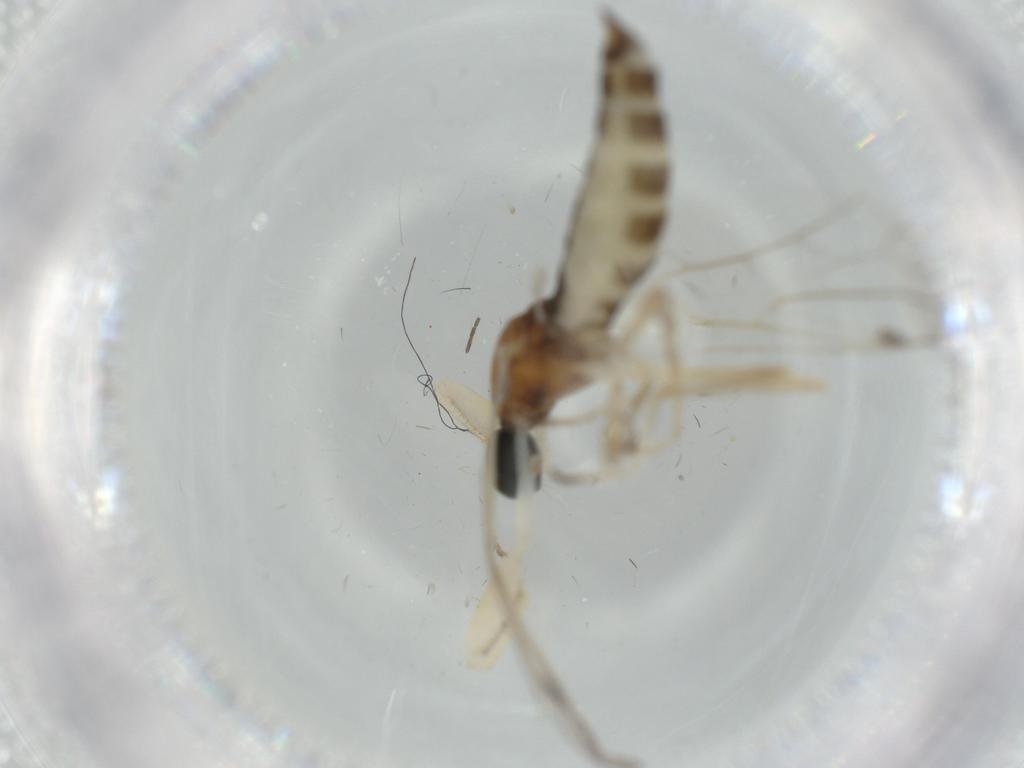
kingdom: Animalia
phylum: Arthropoda
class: Insecta
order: Diptera
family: Empididae
